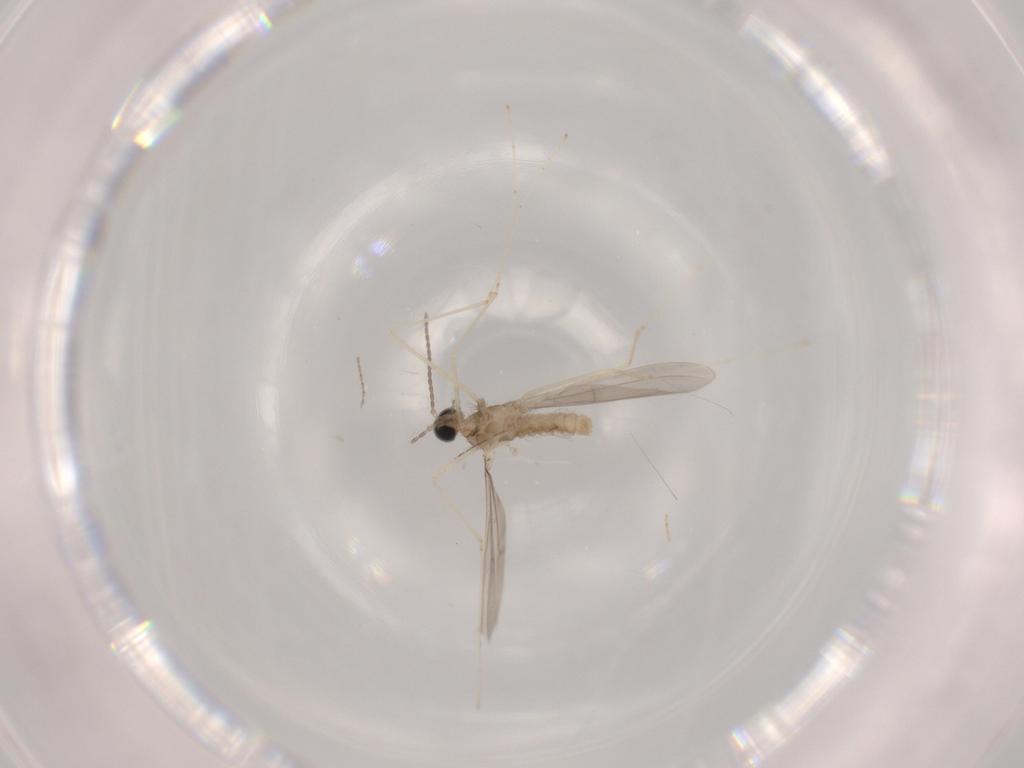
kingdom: Animalia
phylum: Arthropoda
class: Insecta
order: Diptera
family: Cecidomyiidae
